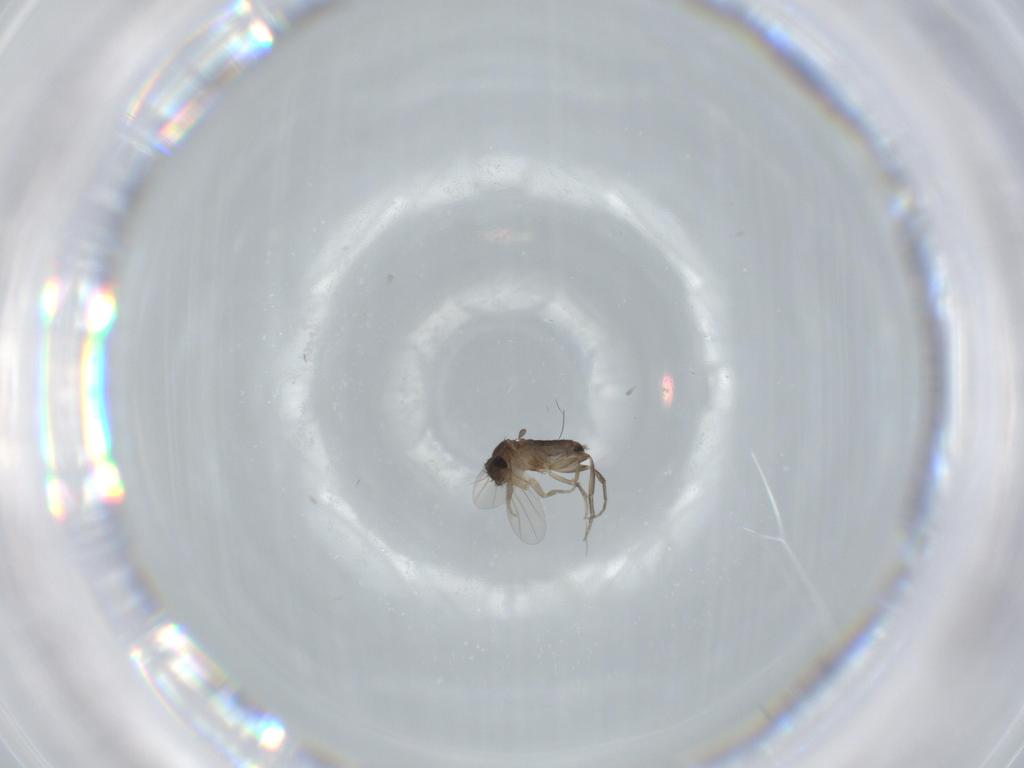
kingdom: Animalia
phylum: Arthropoda
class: Insecta
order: Diptera
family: Phoridae
